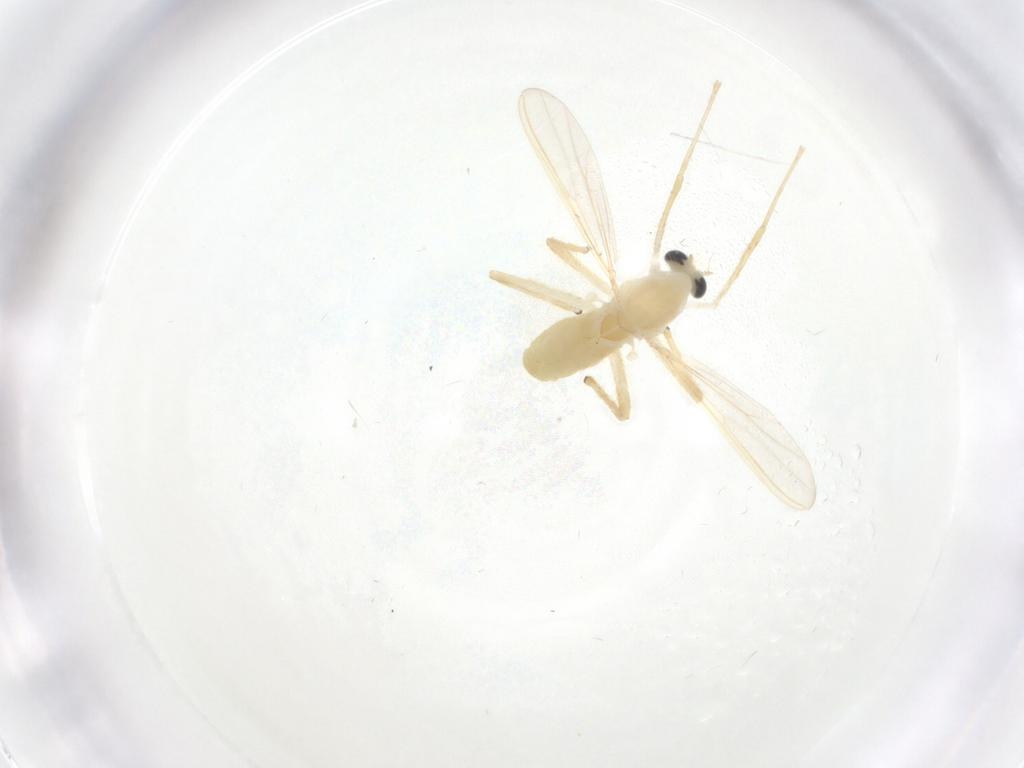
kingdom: Animalia
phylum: Arthropoda
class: Insecta
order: Diptera
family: Chironomidae
